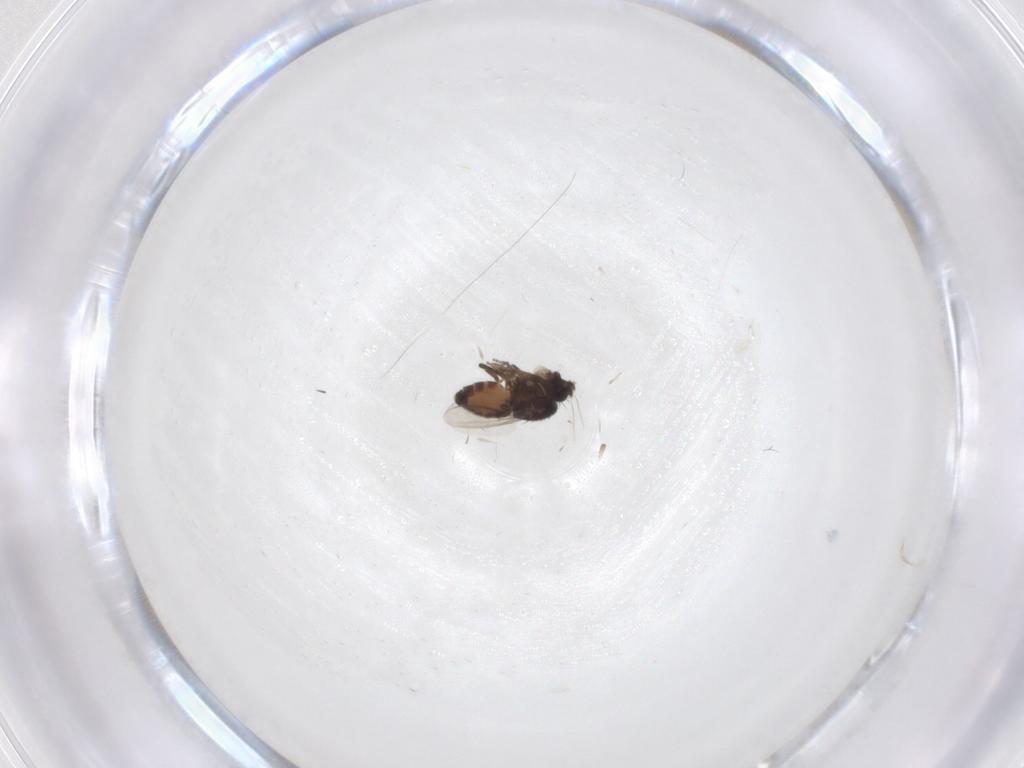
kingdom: Animalia
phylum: Arthropoda
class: Insecta
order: Diptera
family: Cecidomyiidae
